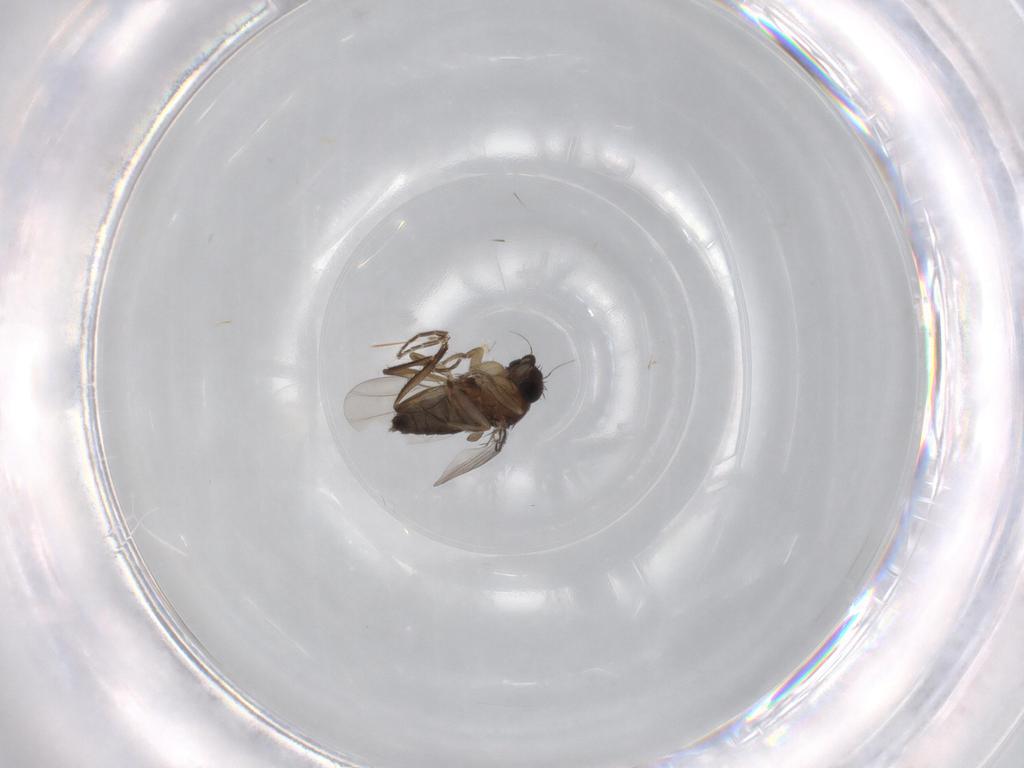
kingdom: Animalia
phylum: Arthropoda
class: Insecta
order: Diptera
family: Phoridae
